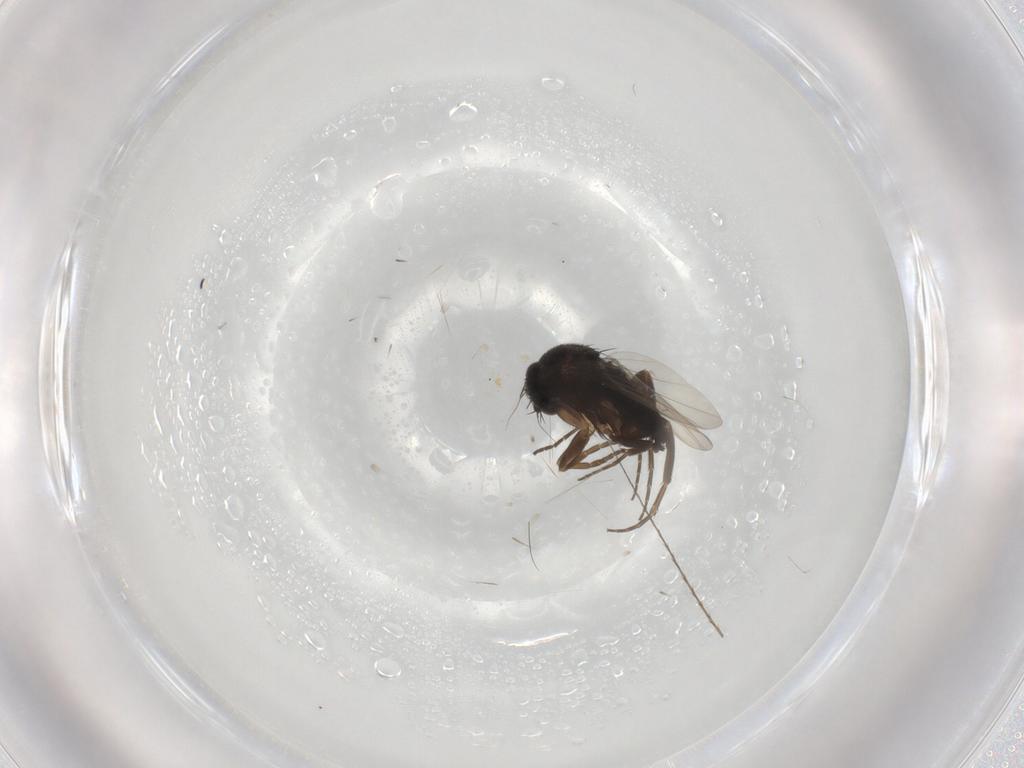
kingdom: Animalia
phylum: Arthropoda
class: Insecta
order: Diptera
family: Phoridae
